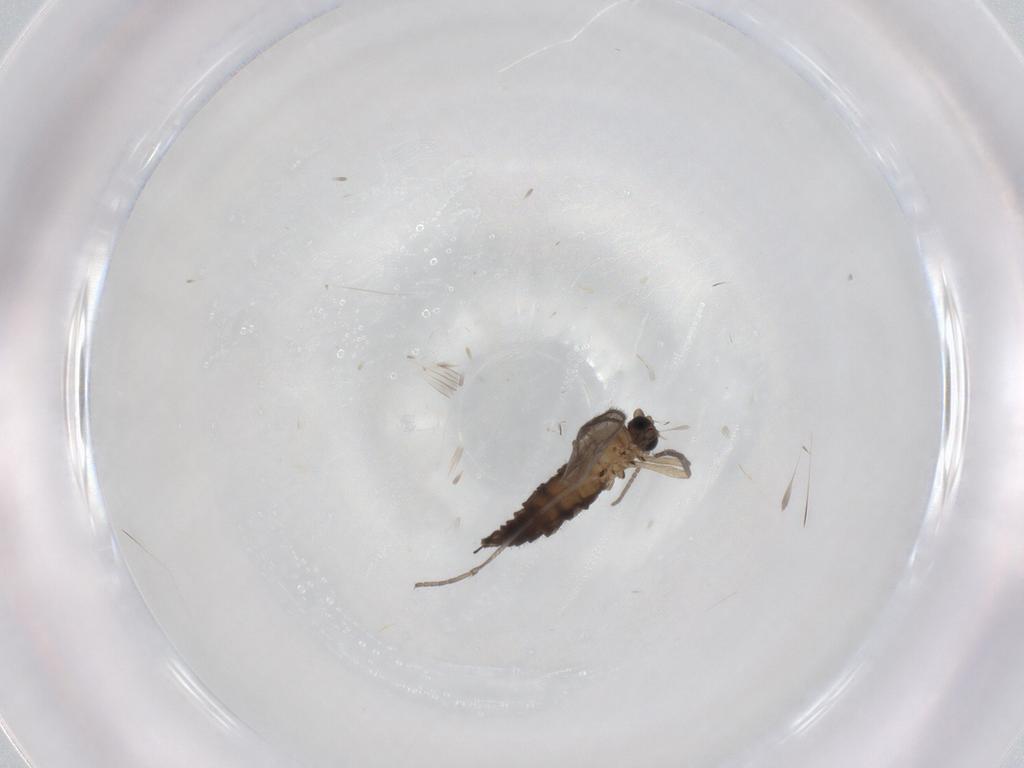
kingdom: Animalia
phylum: Arthropoda
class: Insecta
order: Diptera
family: Sciaridae
